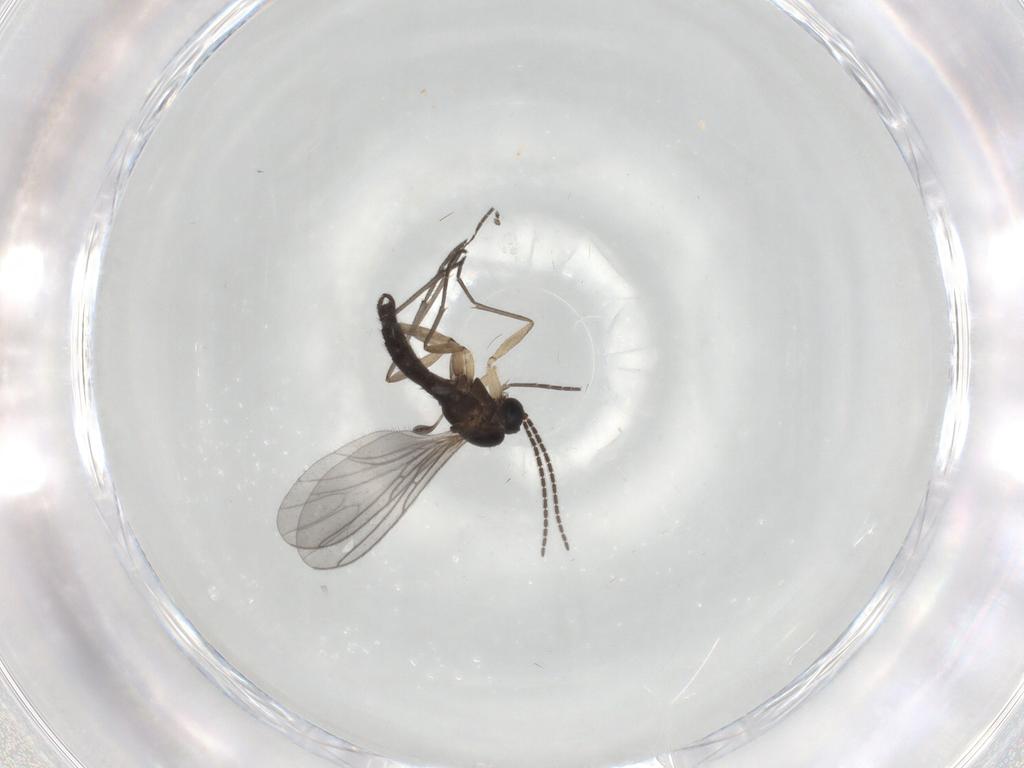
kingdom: Animalia
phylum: Arthropoda
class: Insecta
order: Diptera
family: Sciaridae
